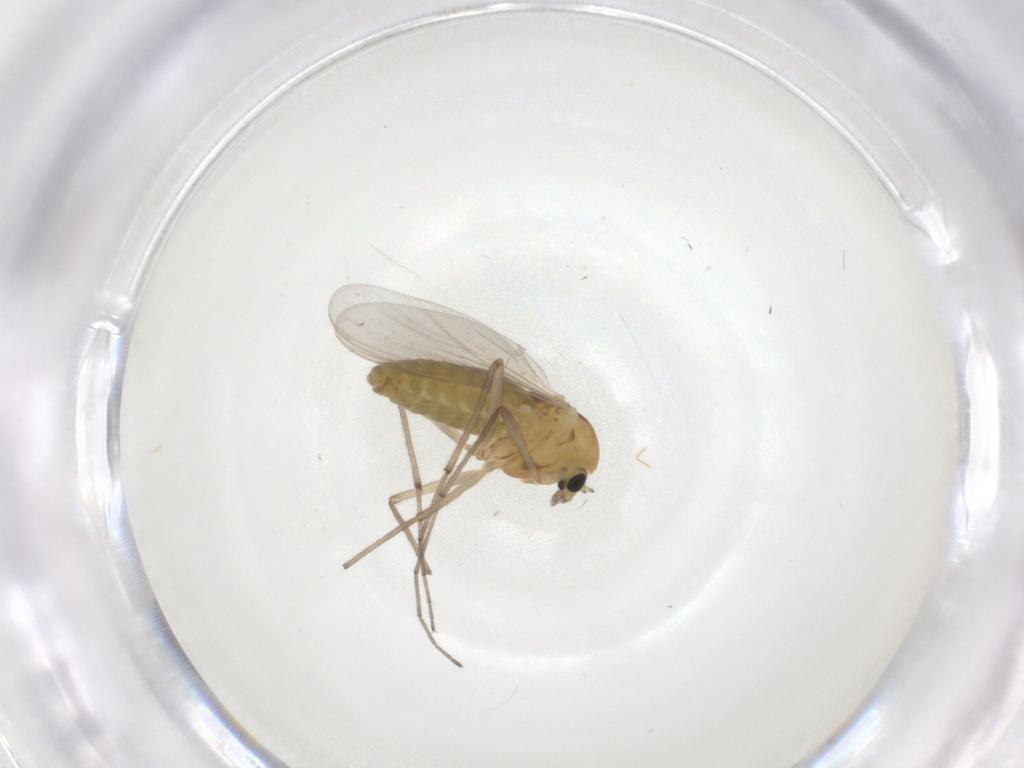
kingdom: Animalia
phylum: Arthropoda
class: Insecta
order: Diptera
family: Chironomidae
